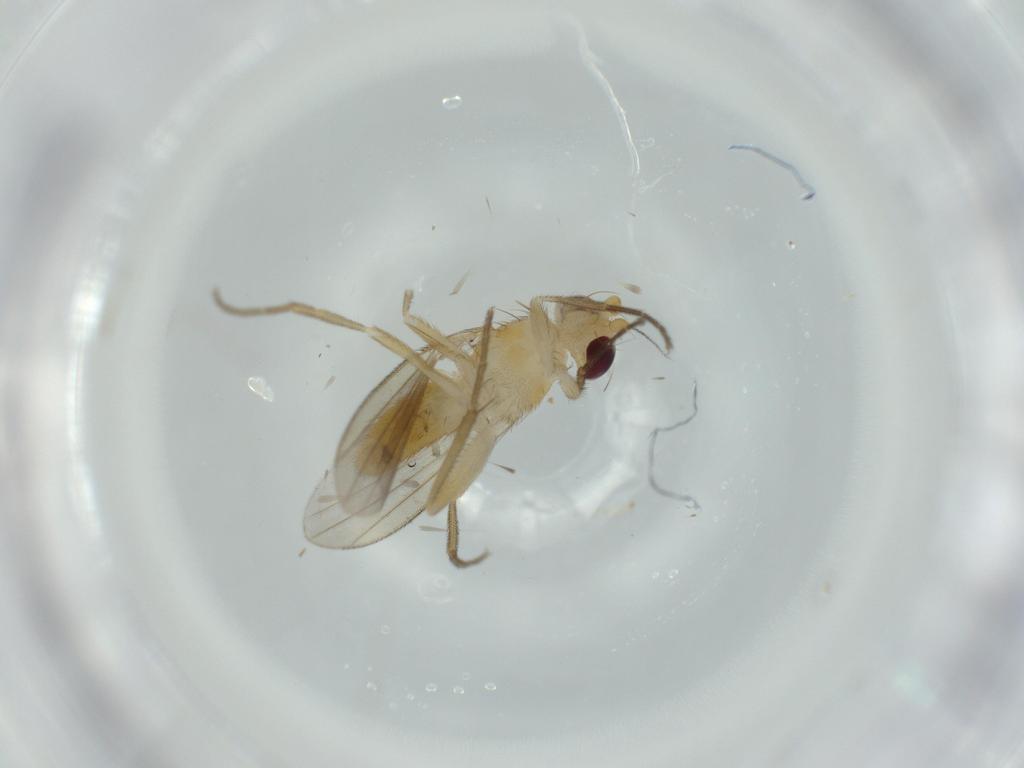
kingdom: Animalia
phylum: Arthropoda
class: Insecta
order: Diptera
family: Clusiidae
